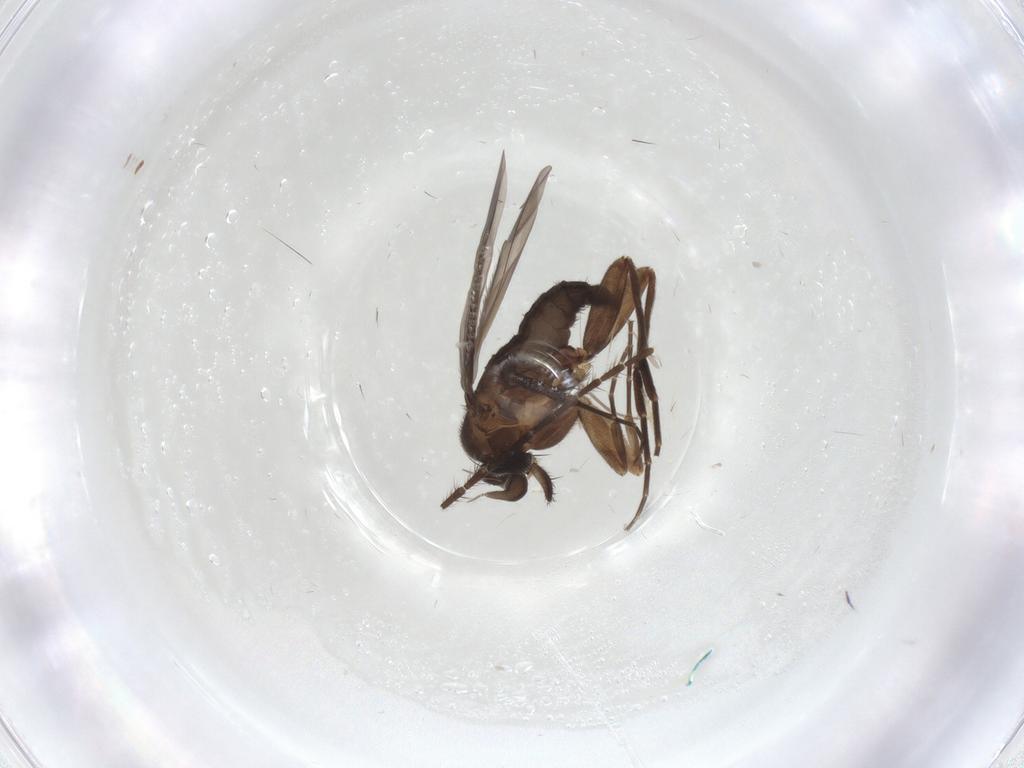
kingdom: Animalia
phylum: Arthropoda
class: Insecta
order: Diptera
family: Phoridae
